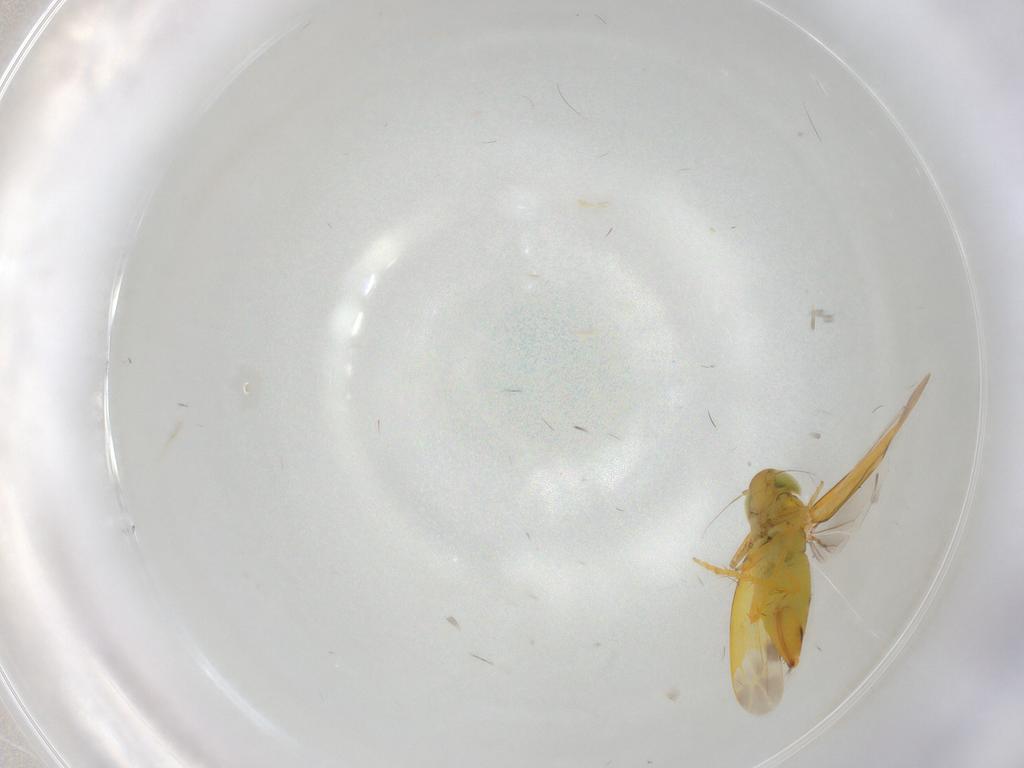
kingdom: Animalia
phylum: Arthropoda
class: Insecta
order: Hemiptera
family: Cicadellidae
